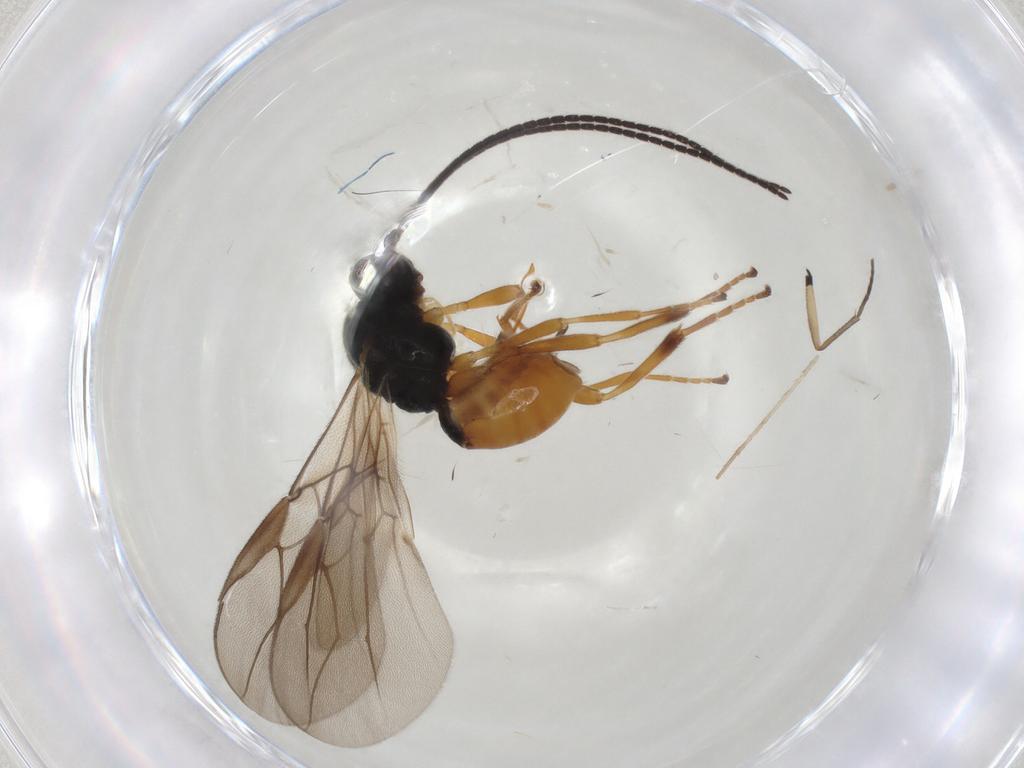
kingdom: Animalia
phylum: Arthropoda
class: Insecta
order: Hymenoptera
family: Braconidae
